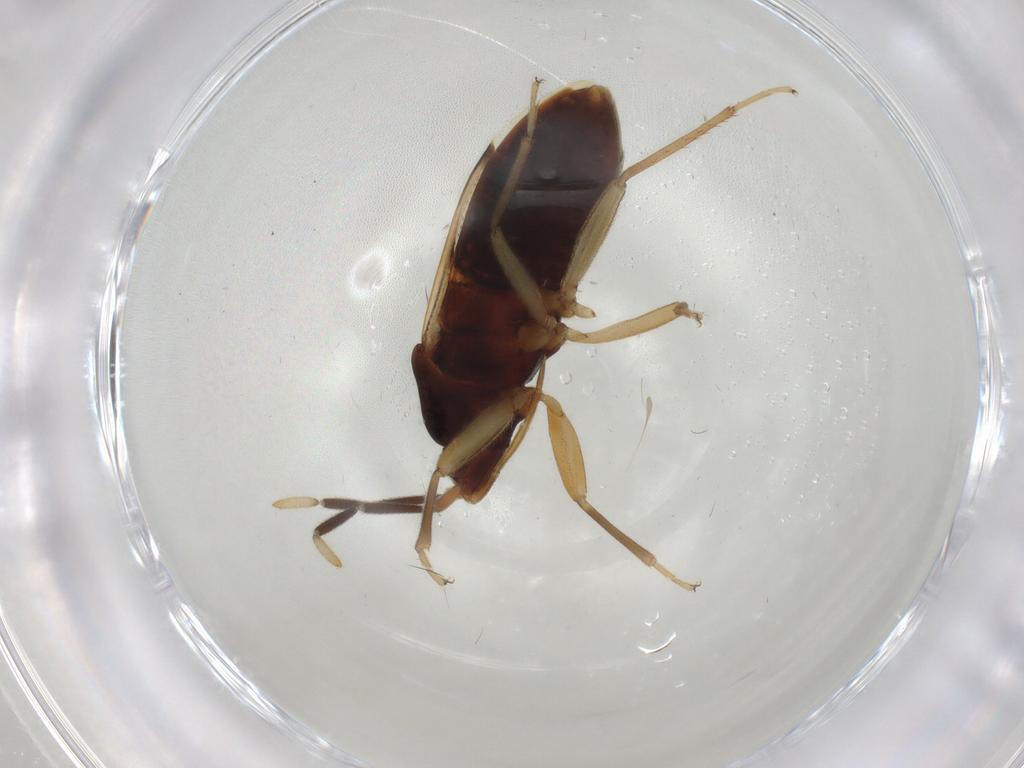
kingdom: Animalia
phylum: Arthropoda
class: Insecta
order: Hemiptera
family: Rhyparochromidae
